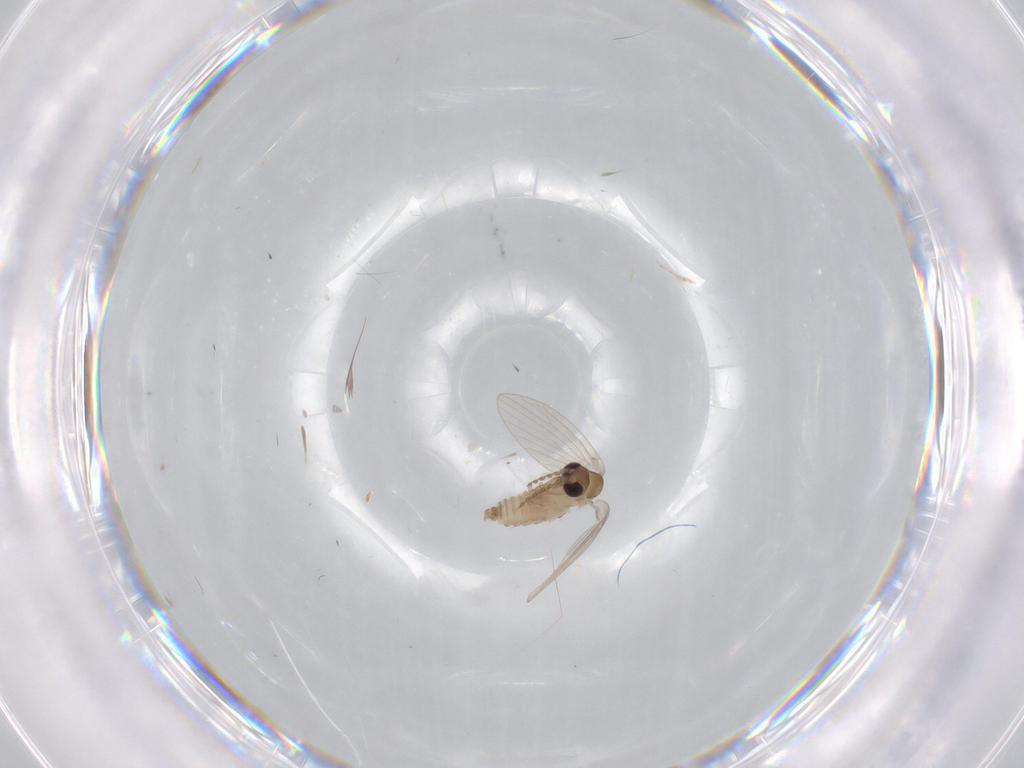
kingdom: Animalia
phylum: Arthropoda
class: Insecta
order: Diptera
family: Psychodidae
